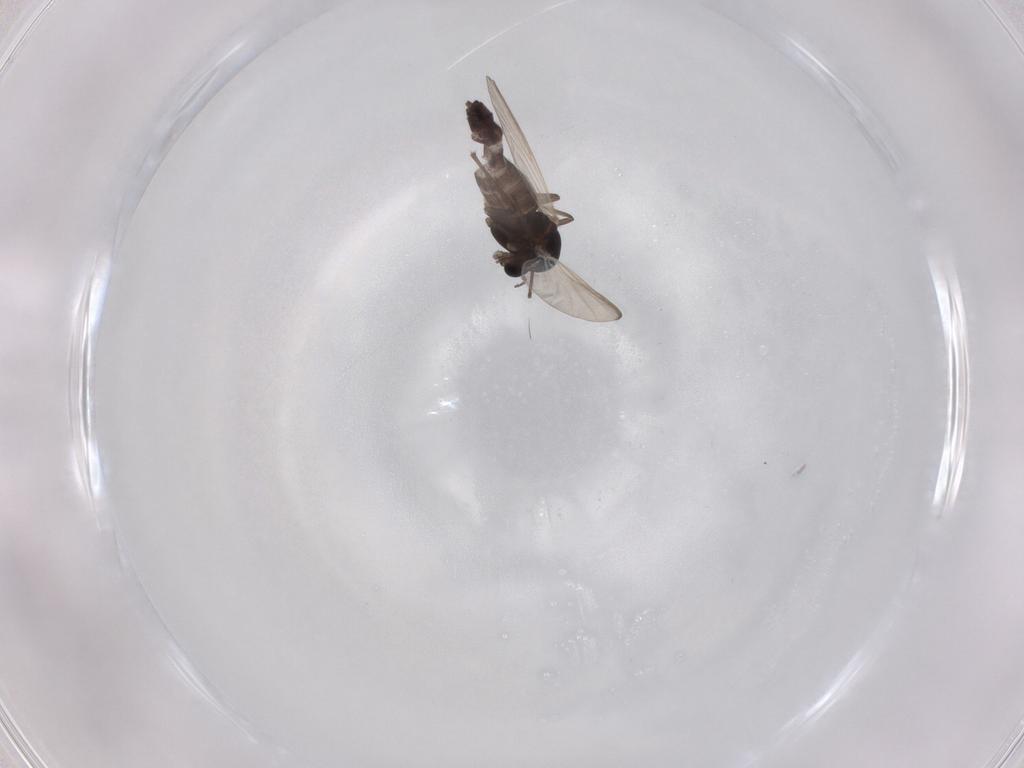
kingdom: Animalia
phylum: Arthropoda
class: Insecta
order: Diptera
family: Chironomidae
